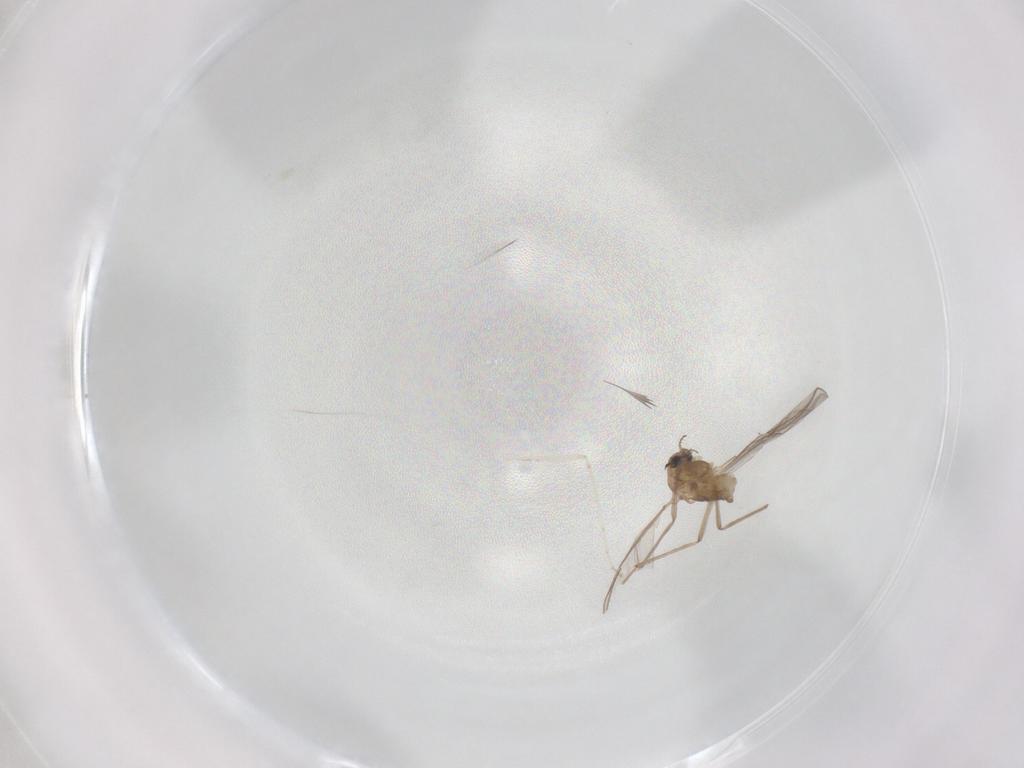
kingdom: Animalia
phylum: Arthropoda
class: Insecta
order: Diptera
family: Chironomidae
